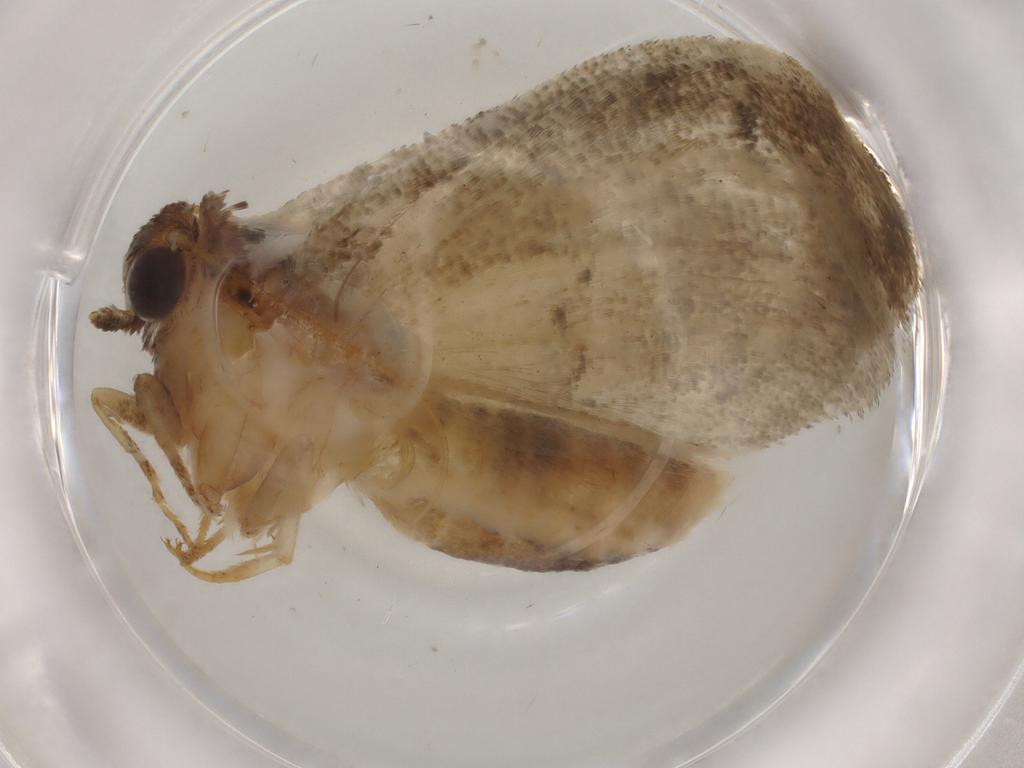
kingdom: Animalia
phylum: Arthropoda
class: Insecta
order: Lepidoptera
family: Noctuidae
